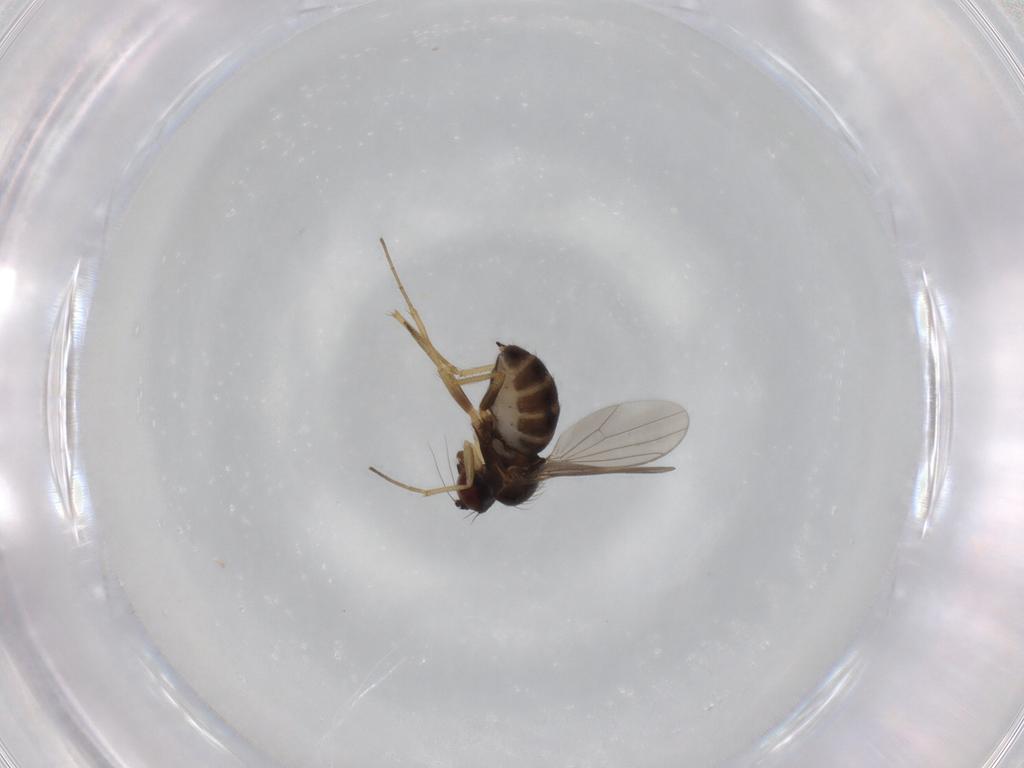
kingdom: Animalia
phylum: Arthropoda
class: Insecta
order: Diptera
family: Dolichopodidae
